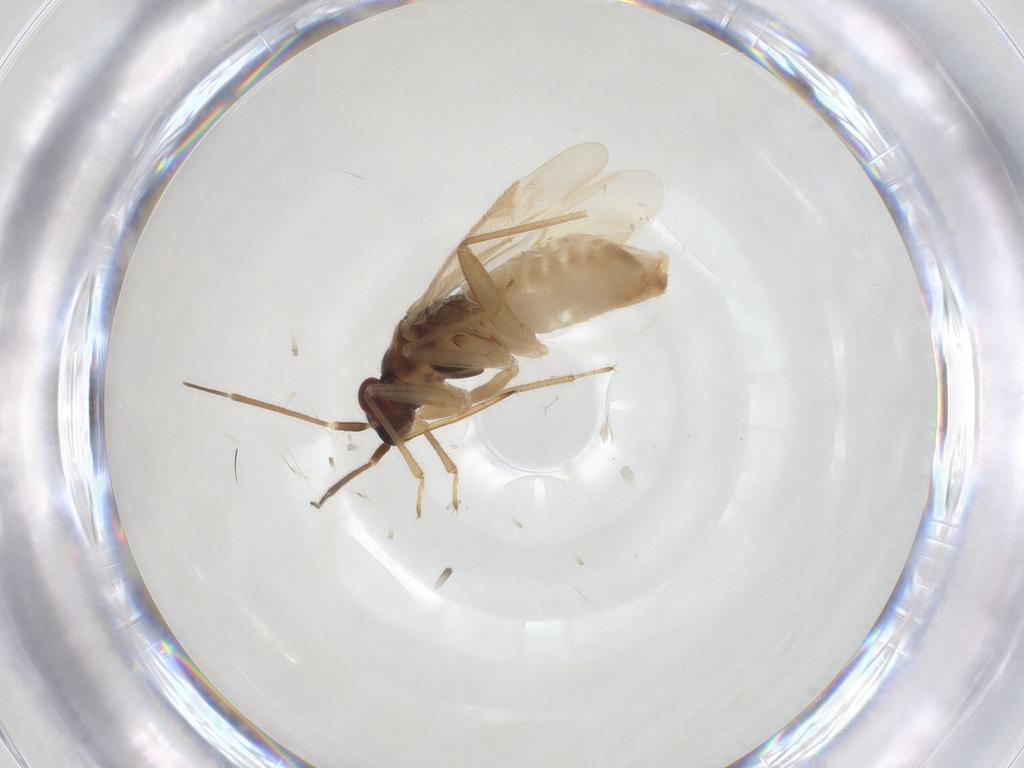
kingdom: Animalia
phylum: Arthropoda
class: Insecta
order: Hemiptera
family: Anthocoridae
